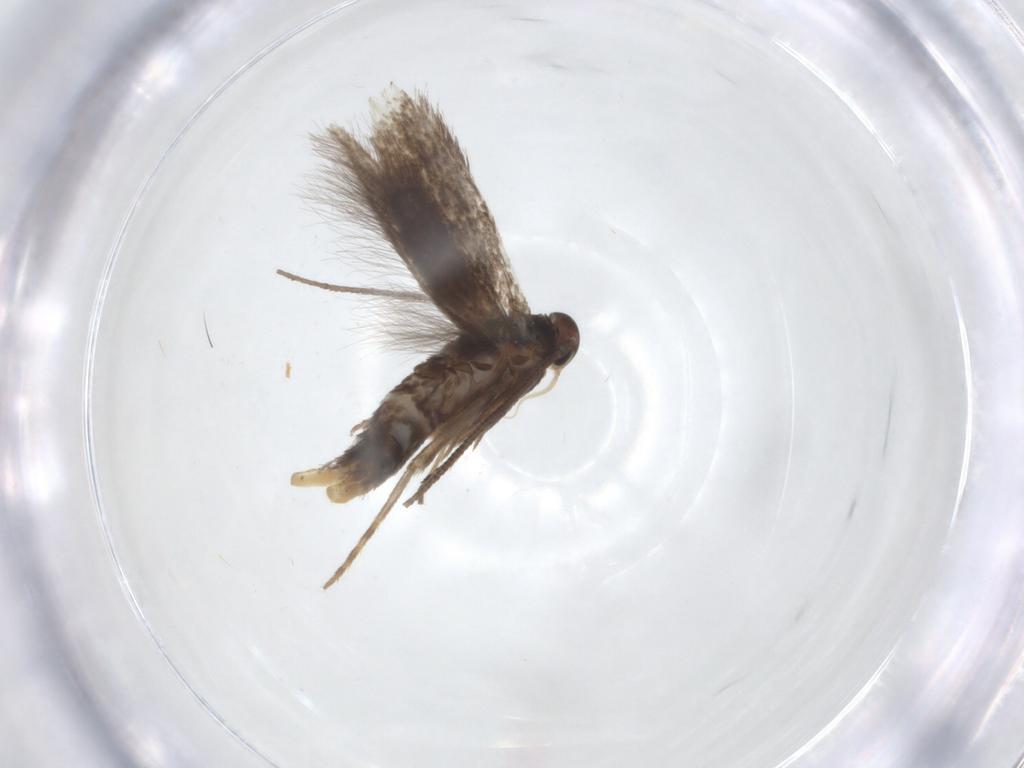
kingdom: Animalia
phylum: Arthropoda
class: Insecta
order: Lepidoptera
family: Elachistidae
